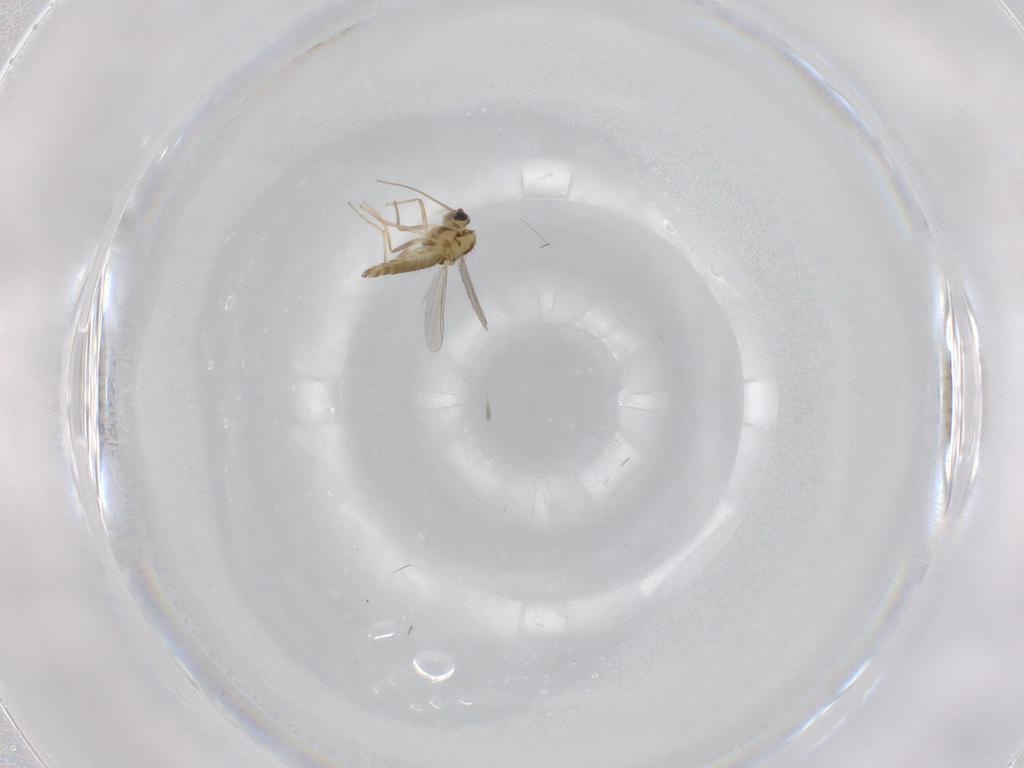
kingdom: Animalia
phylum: Arthropoda
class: Insecta
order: Diptera
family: Chironomidae
